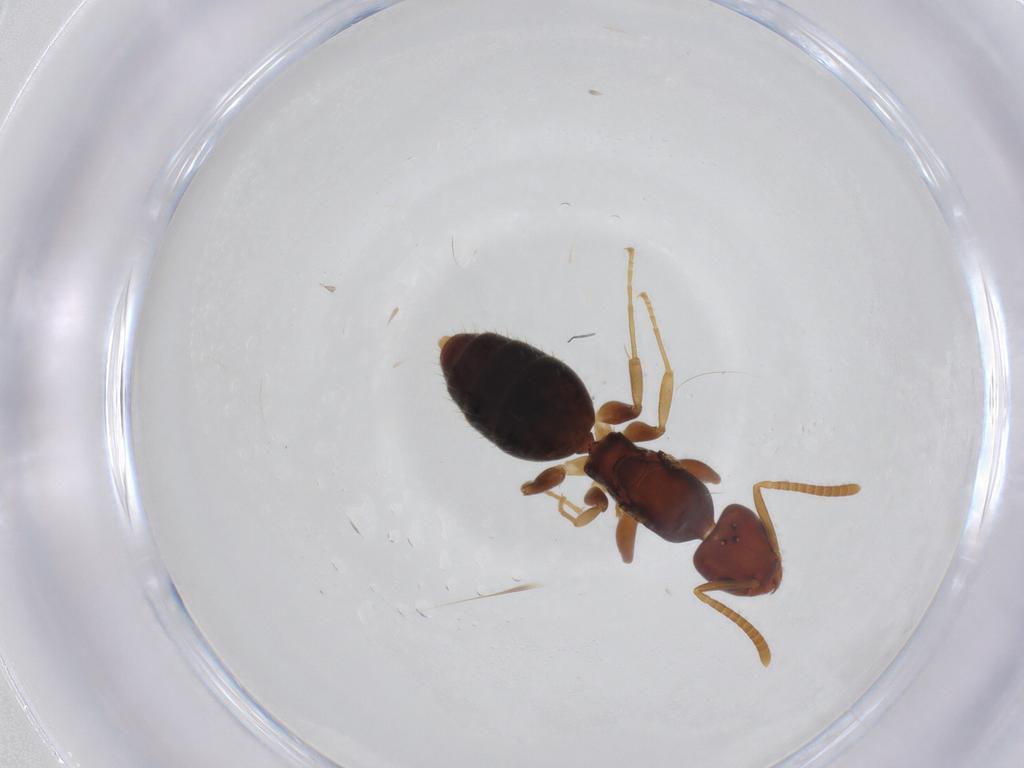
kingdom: Animalia
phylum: Arthropoda
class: Insecta
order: Hymenoptera
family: Formicidae
